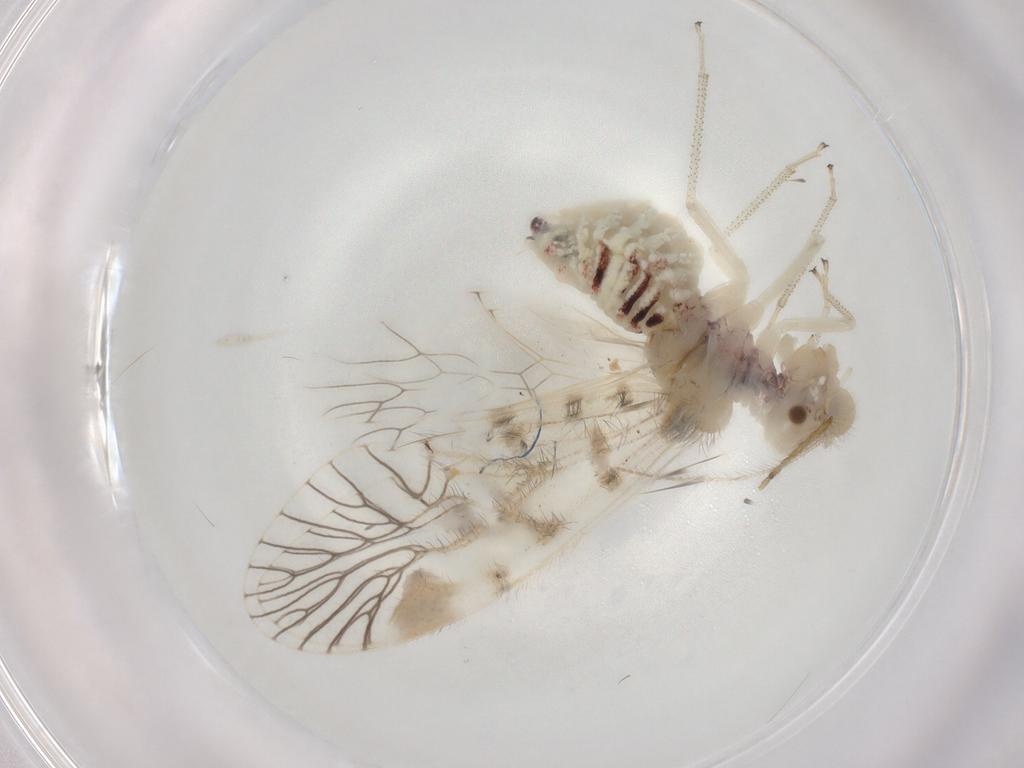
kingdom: Animalia
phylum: Arthropoda
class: Insecta
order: Psocodea
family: Amphipsocidae
